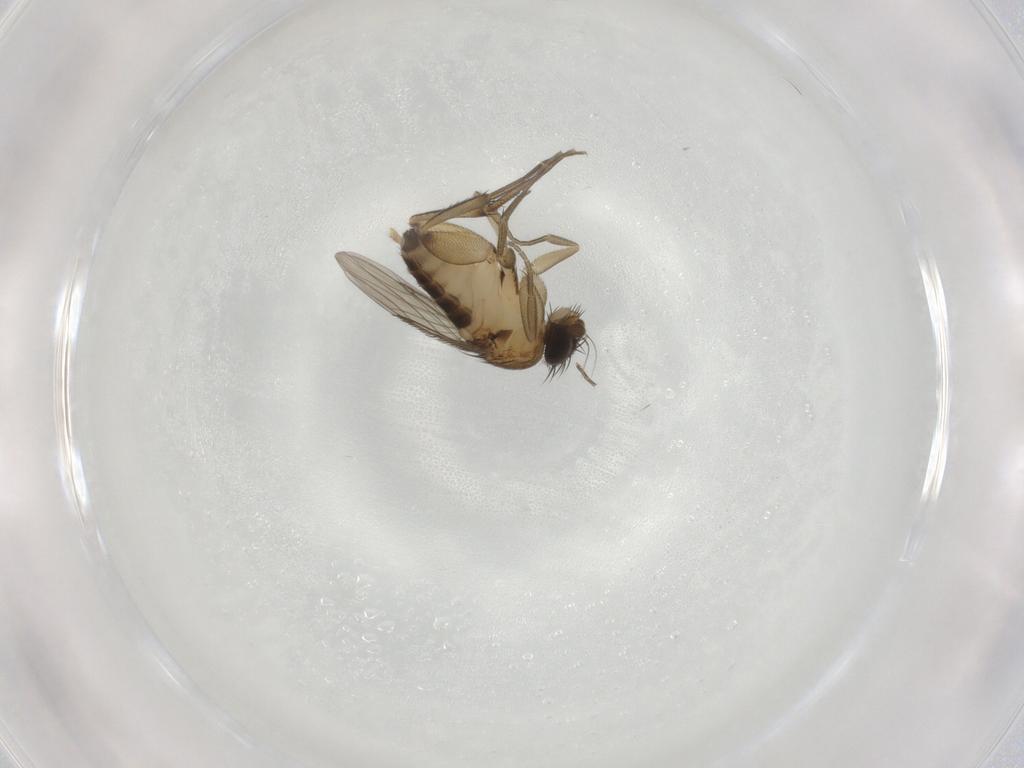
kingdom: Animalia
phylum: Arthropoda
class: Insecta
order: Diptera
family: Phoridae
